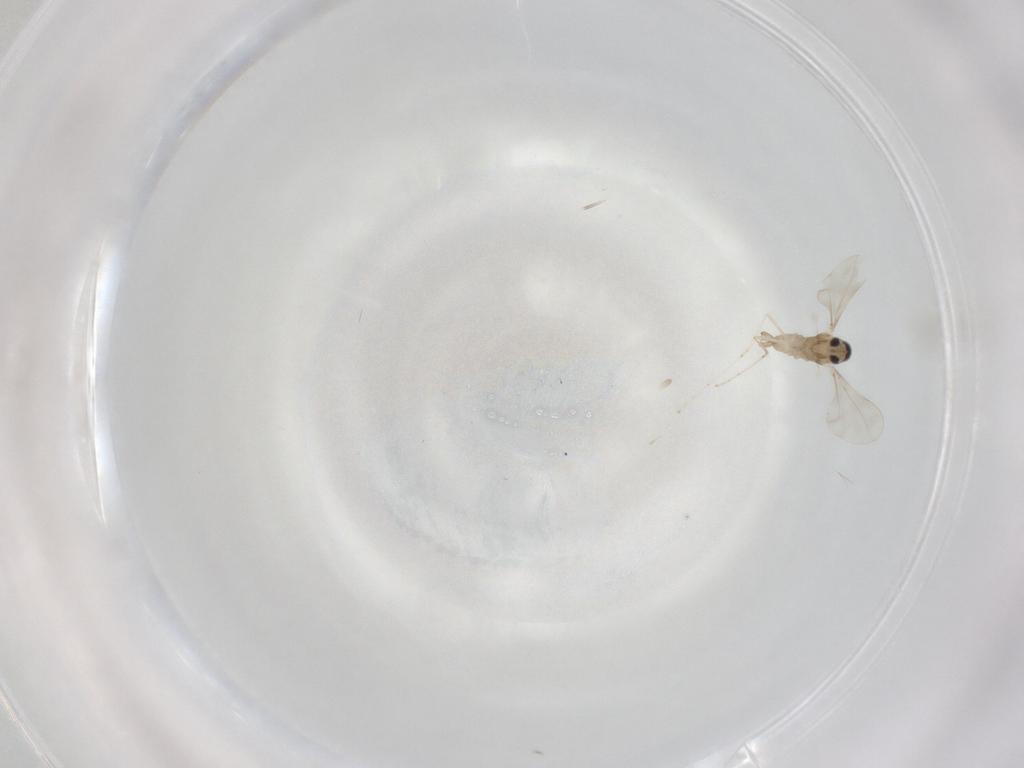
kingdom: Animalia
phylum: Arthropoda
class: Insecta
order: Diptera
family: Cecidomyiidae
